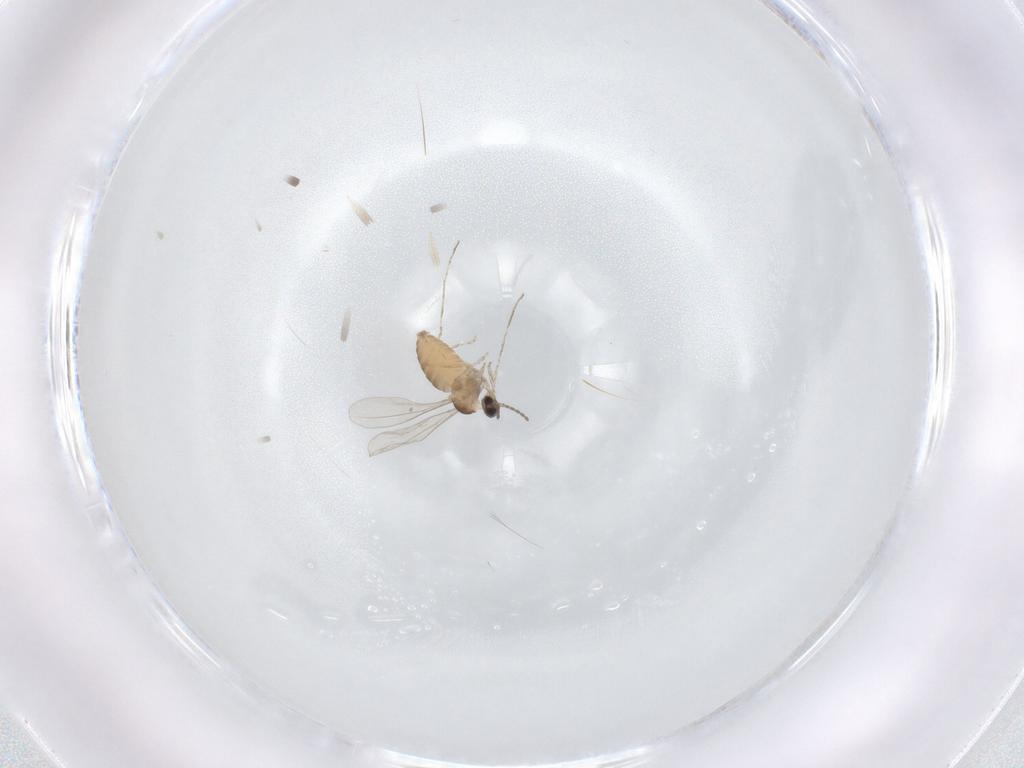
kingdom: Animalia
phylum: Arthropoda
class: Insecta
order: Diptera
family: Cecidomyiidae
